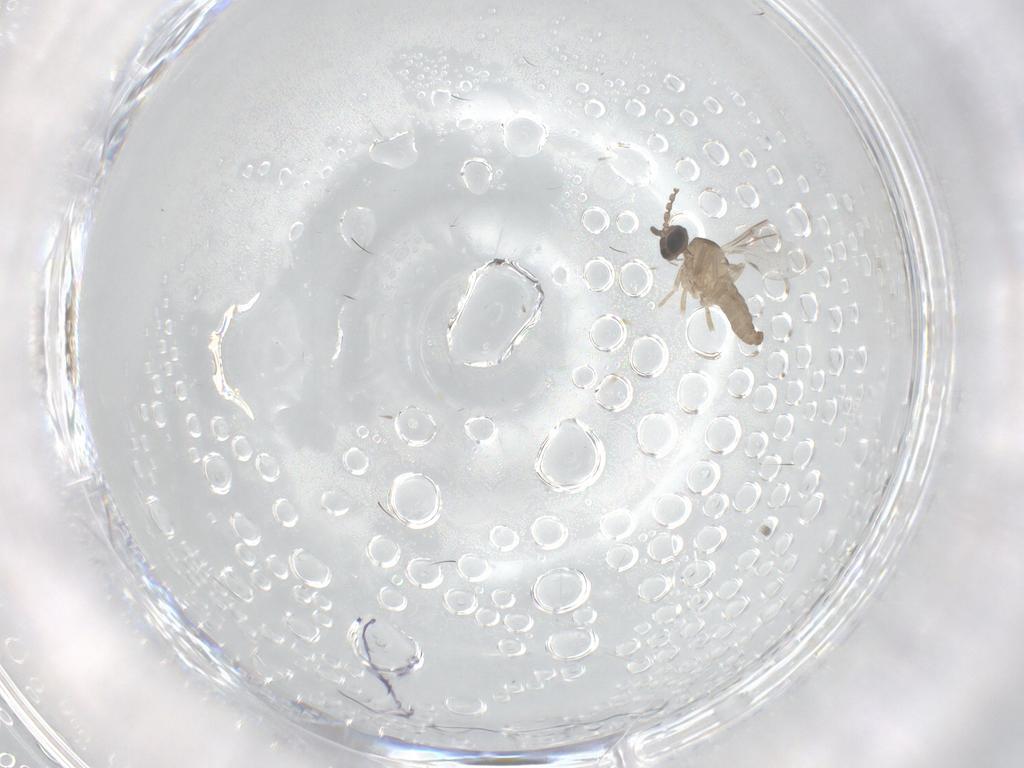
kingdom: Animalia
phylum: Arthropoda
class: Insecta
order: Diptera
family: Cecidomyiidae
